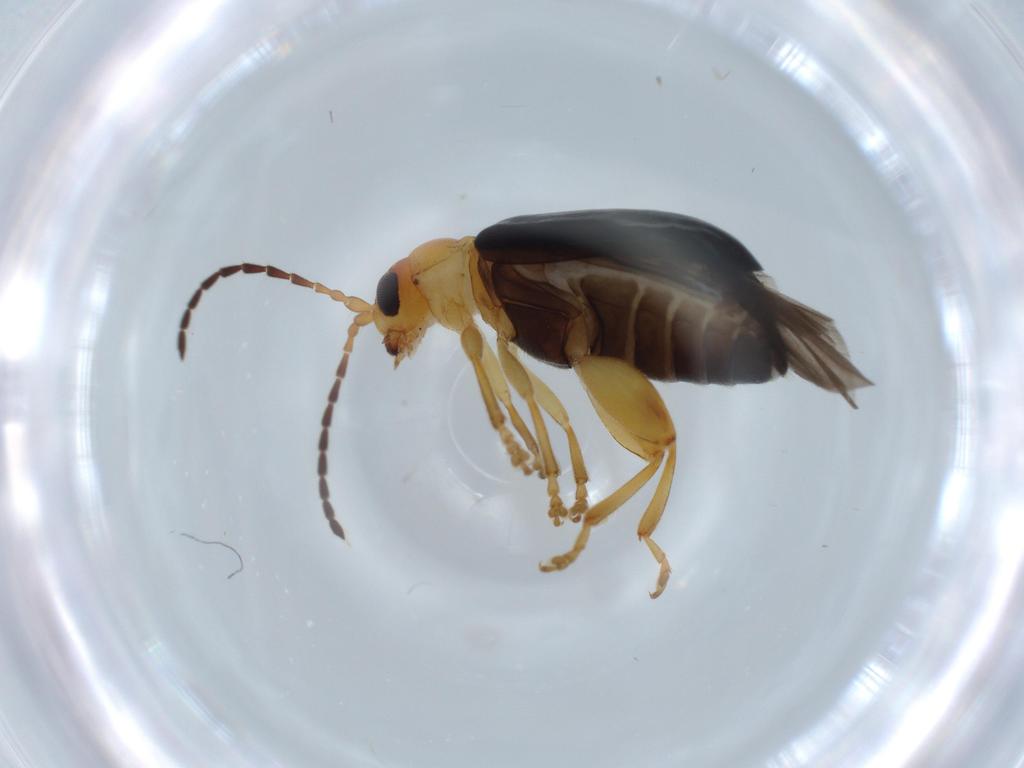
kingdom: Animalia
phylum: Arthropoda
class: Insecta
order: Coleoptera
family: Chrysomelidae
